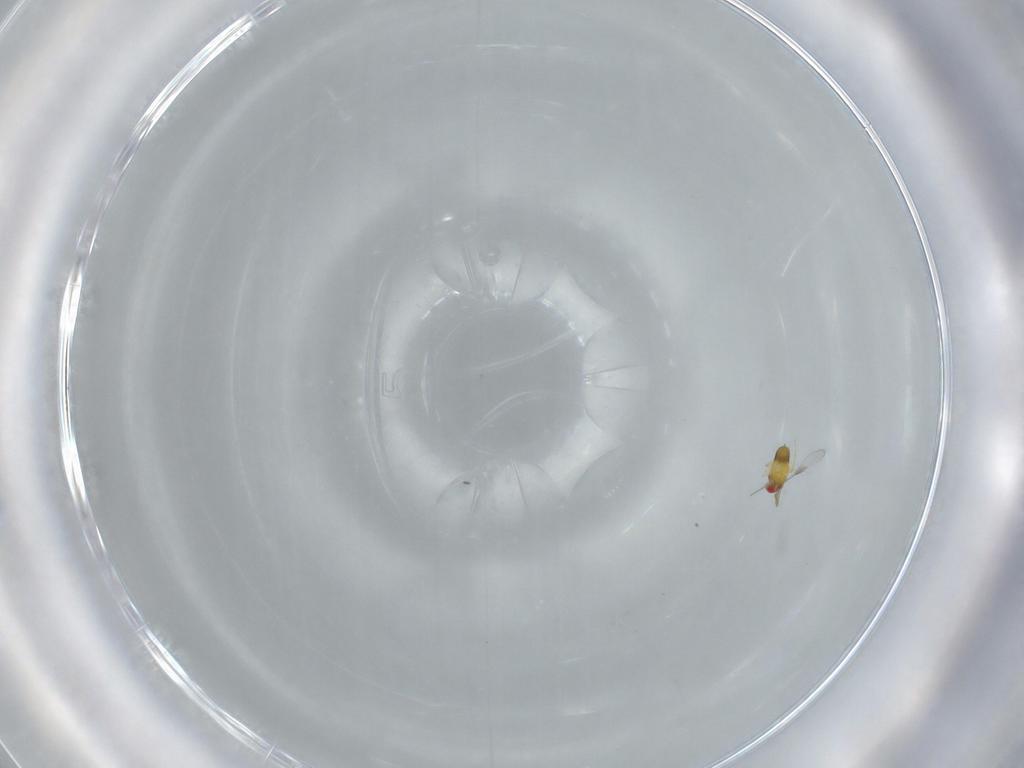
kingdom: Animalia
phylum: Arthropoda
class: Insecta
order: Hymenoptera
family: Trichogrammatidae
